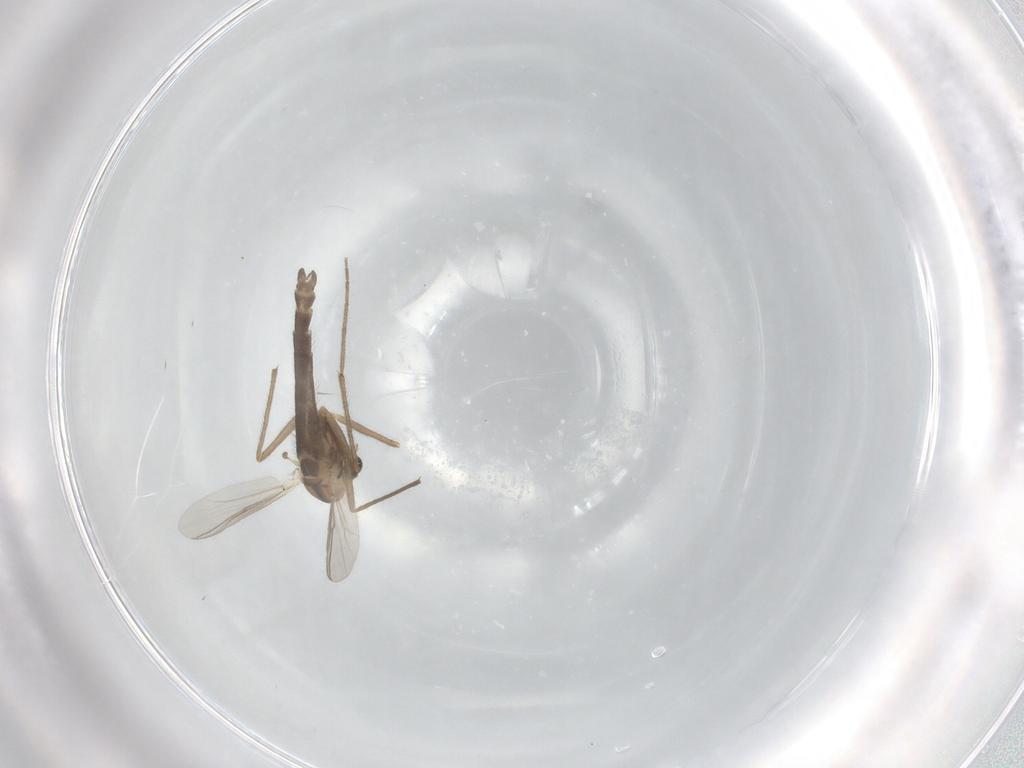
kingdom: Animalia
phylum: Arthropoda
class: Insecta
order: Diptera
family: Chironomidae
